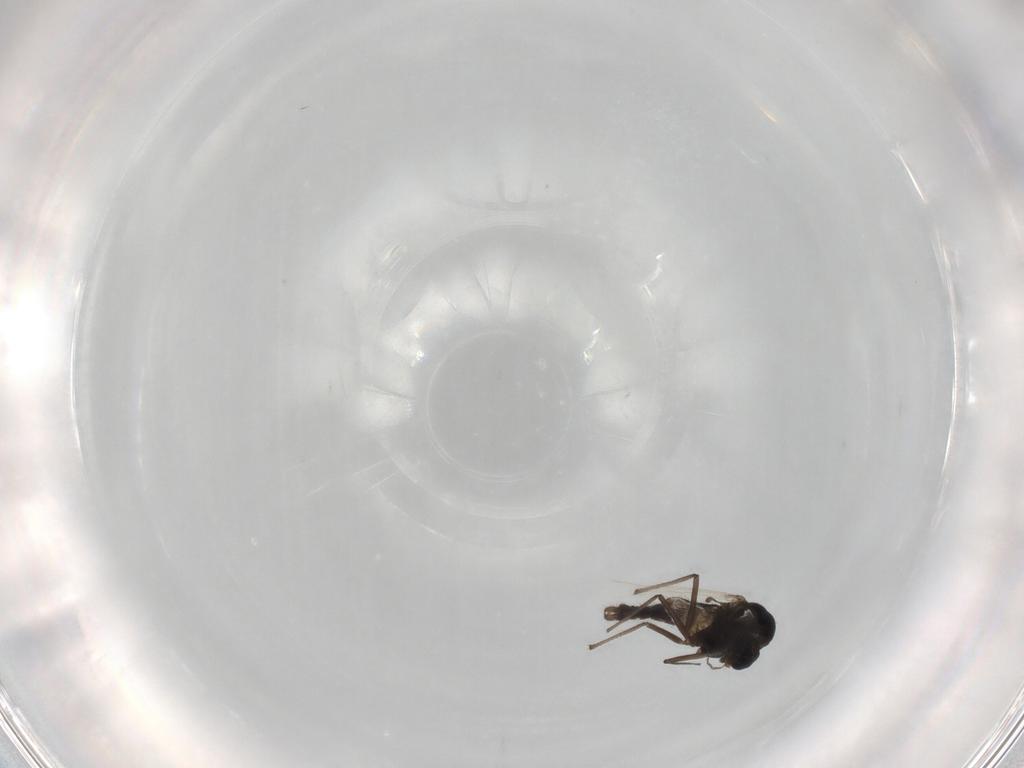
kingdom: Animalia
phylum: Arthropoda
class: Insecta
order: Diptera
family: Chironomidae
